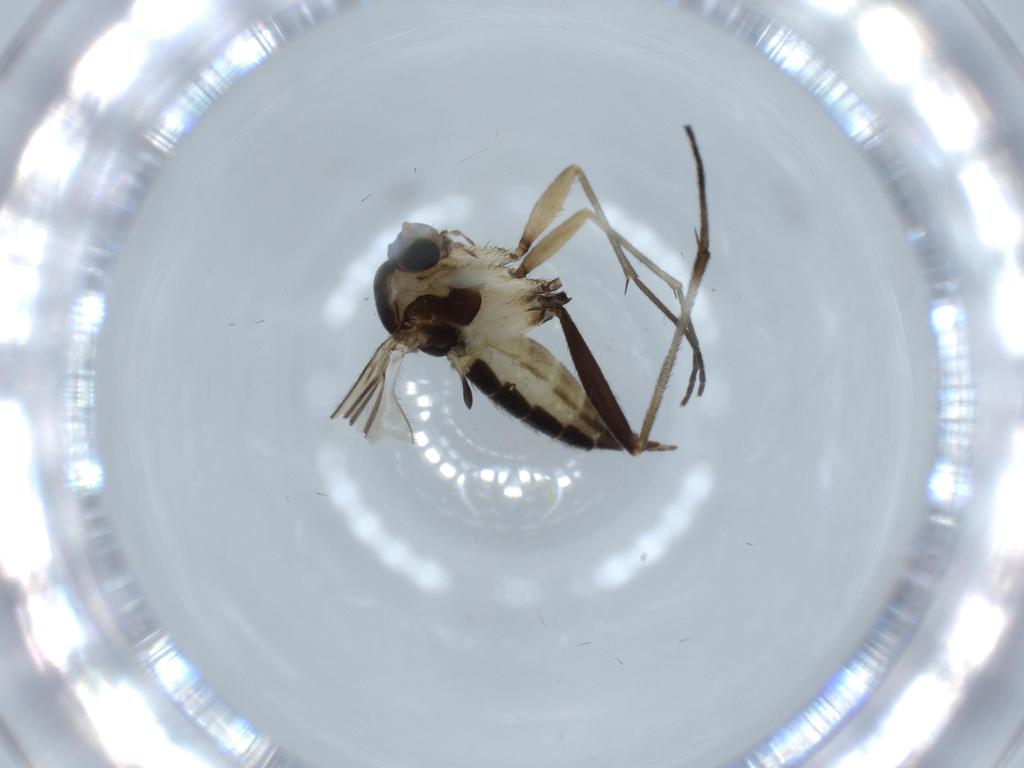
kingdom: Animalia
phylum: Arthropoda
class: Insecta
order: Diptera
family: Sciaridae
